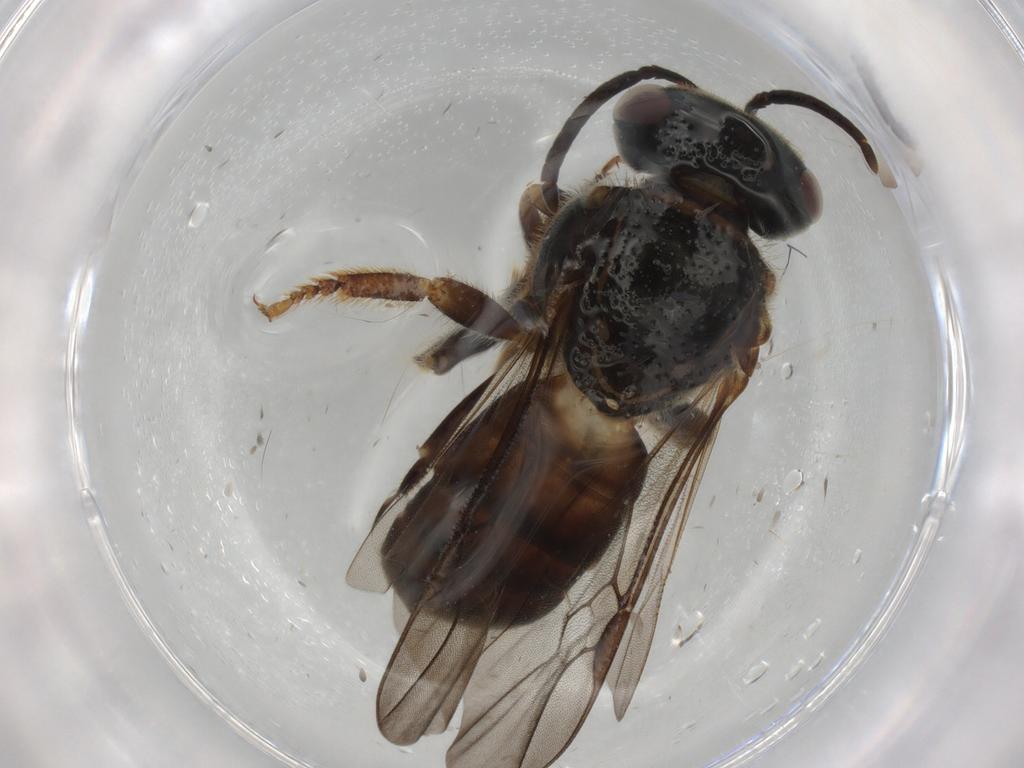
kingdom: Animalia
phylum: Arthropoda
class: Insecta
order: Hymenoptera
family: Apidae
